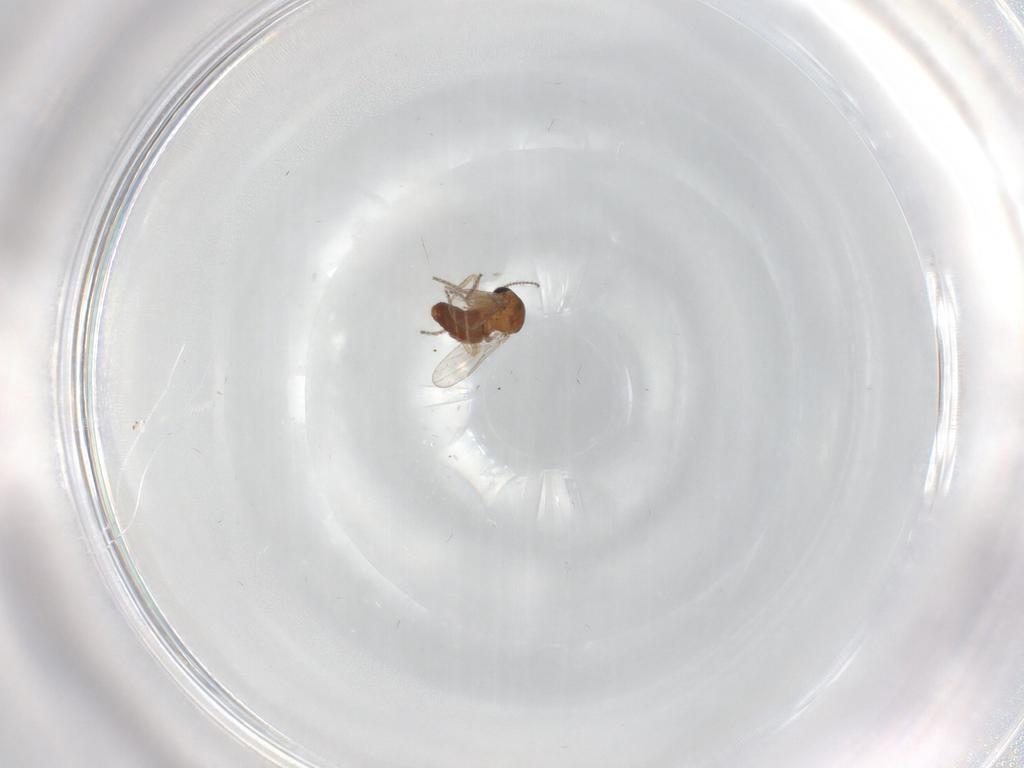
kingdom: Animalia
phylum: Arthropoda
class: Insecta
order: Diptera
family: Ceratopogonidae
